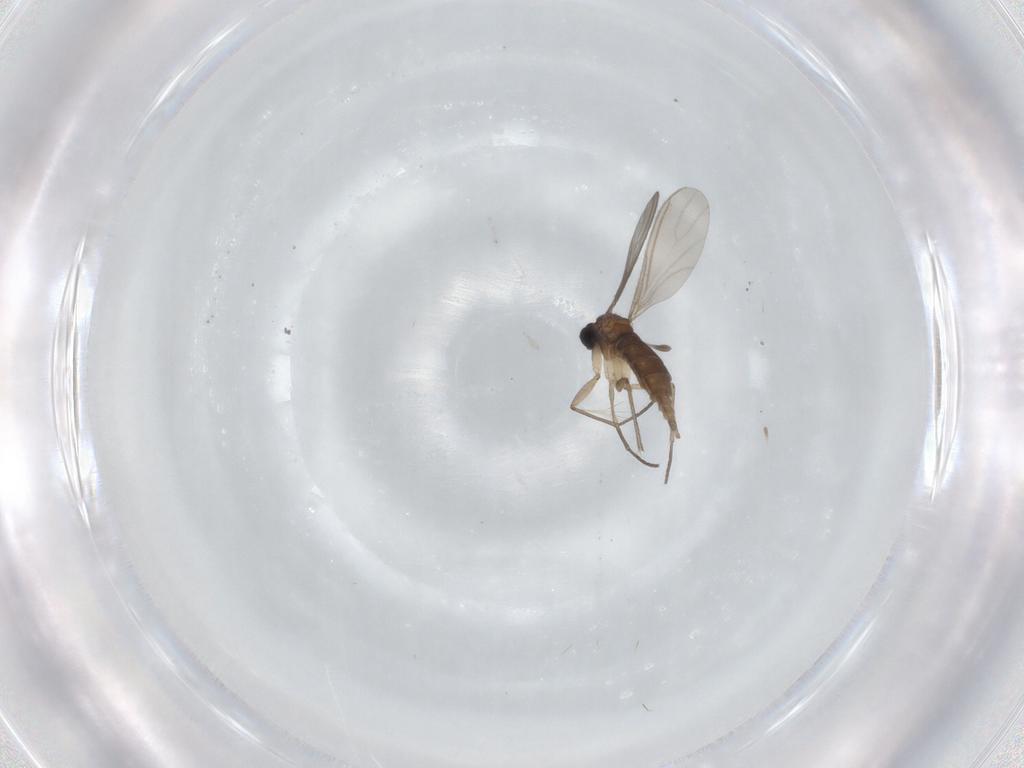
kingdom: Animalia
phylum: Arthropoda
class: Insecta
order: Diptera
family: Sciaridae
